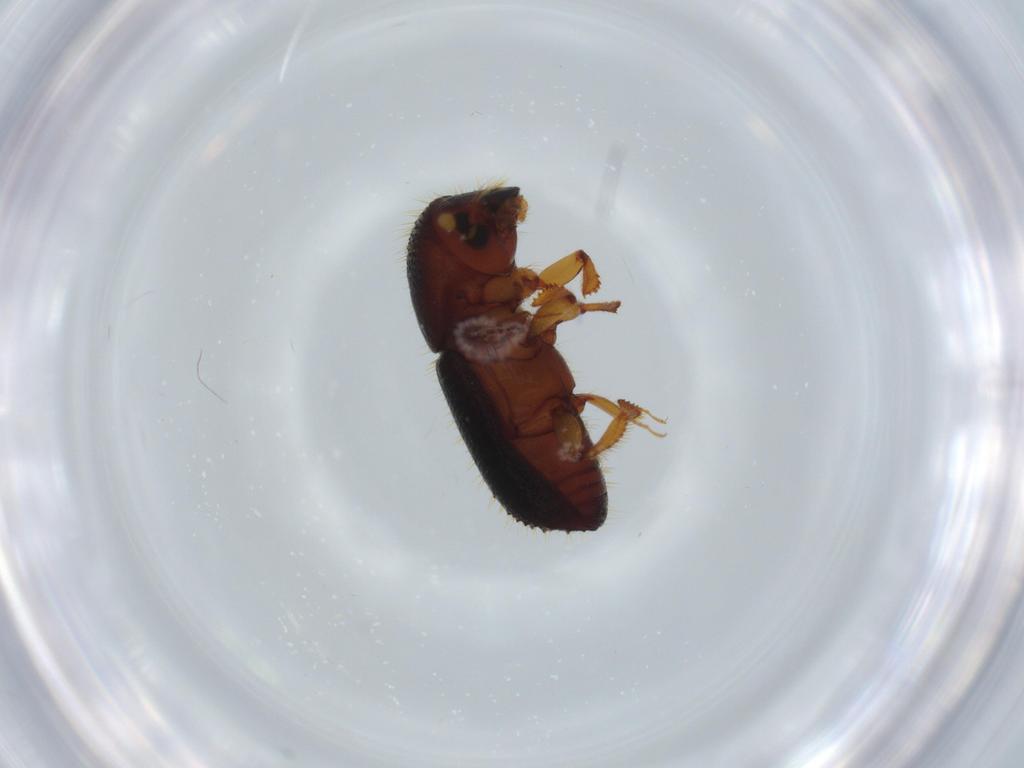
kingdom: Animalia
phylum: Arthropoda
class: Insecta
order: Coleoptera
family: Curculionidae
